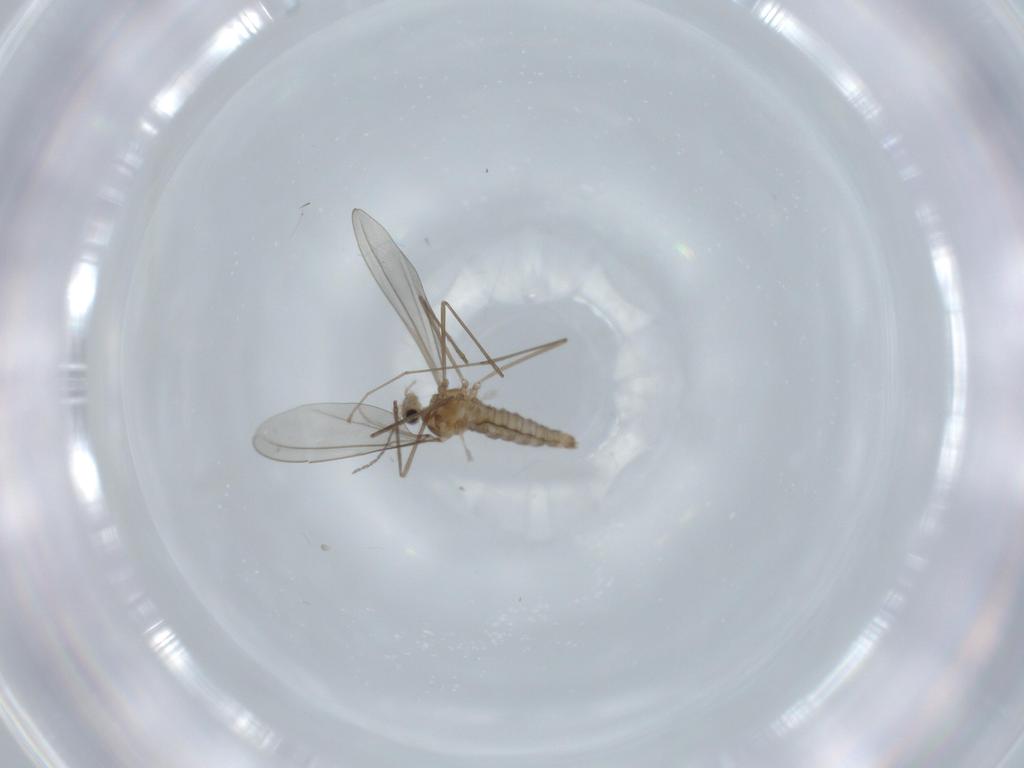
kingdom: Animalia
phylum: Arthropoda
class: Insecta
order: Diptera
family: Cecidomyiidae
